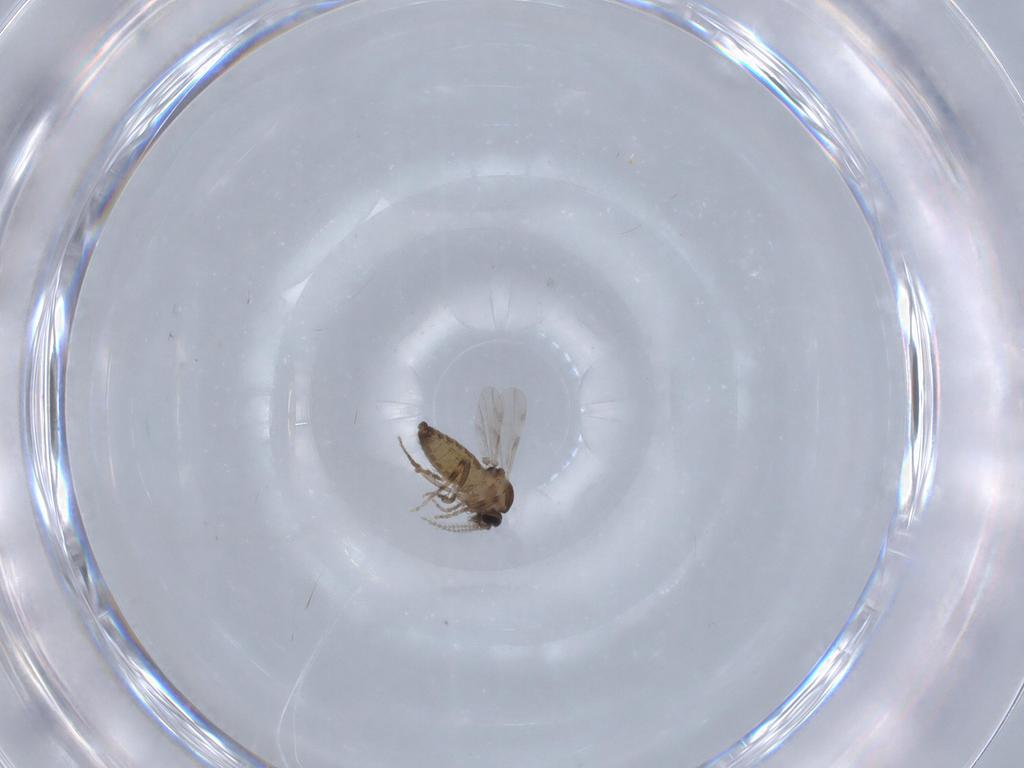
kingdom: Animalia
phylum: Arthropoda
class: Insecta
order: Diptera
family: Ceratopogonidae
